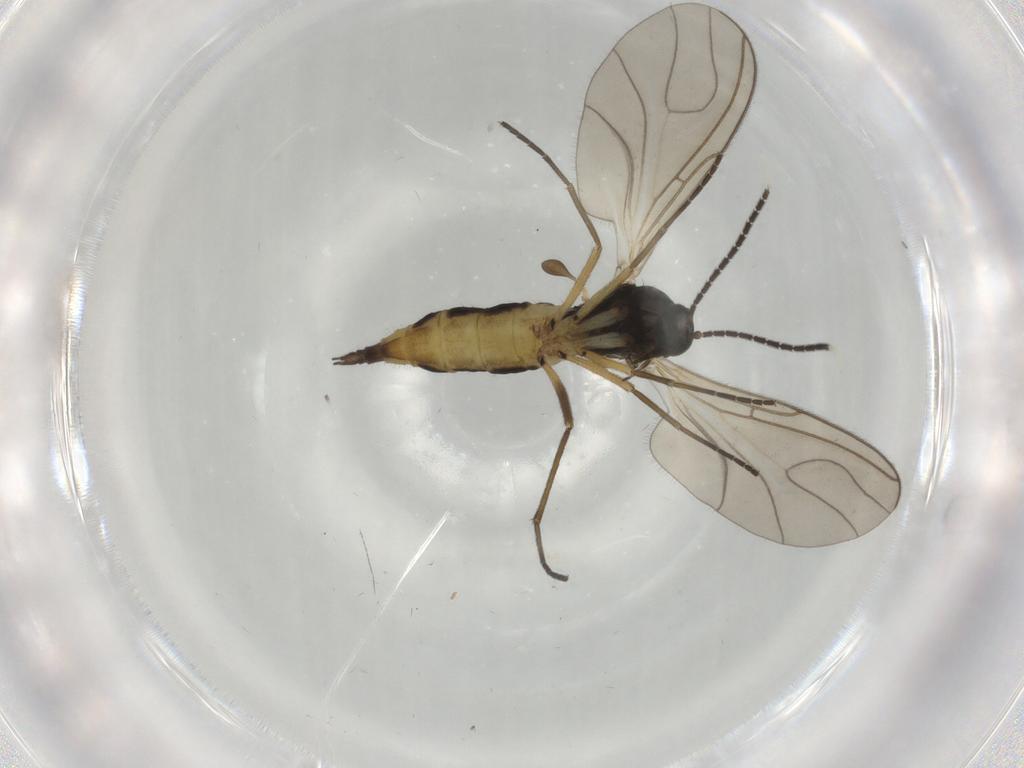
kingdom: Animalia
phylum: Arthropoda
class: Insecta
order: Diptera
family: Sciaridae
